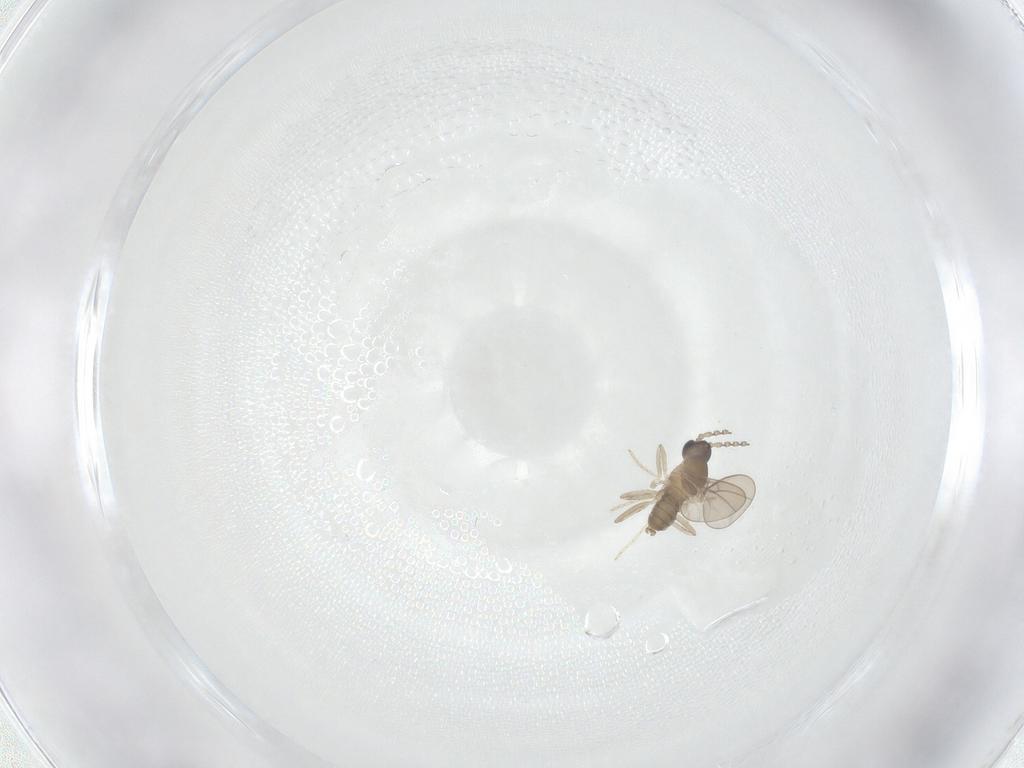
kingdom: Animalia
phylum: Arthropoda
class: Insecta
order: Diptera
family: Cecidomyiidae
